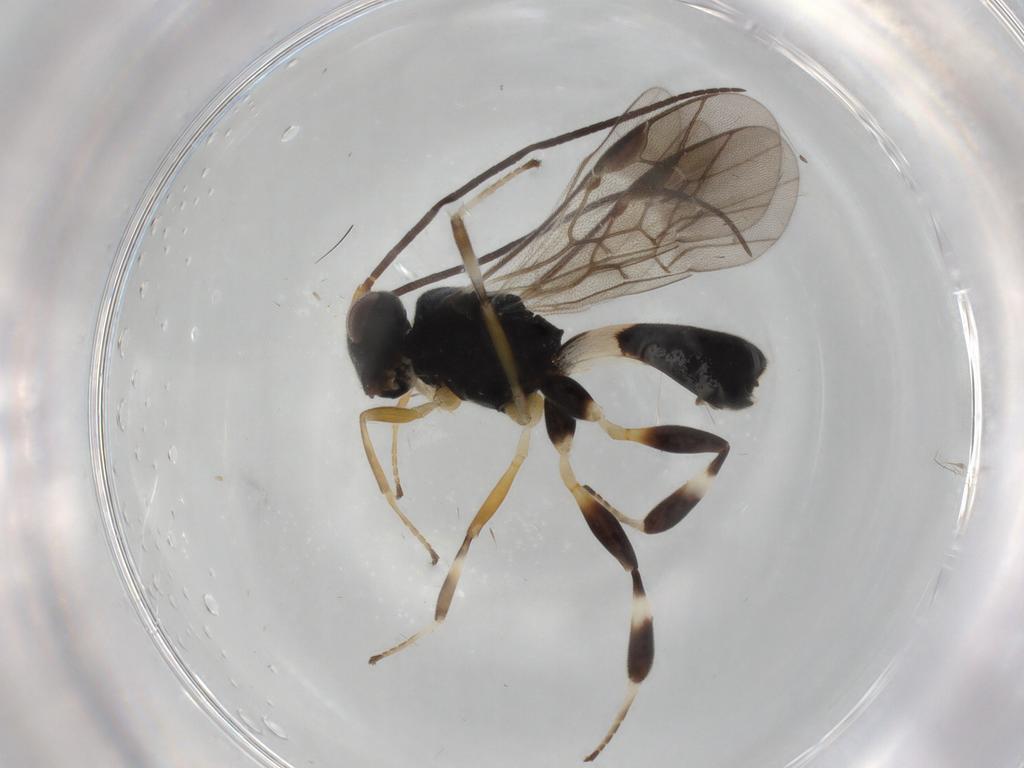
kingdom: Animalia
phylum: Arthropoda
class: Insecta
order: Hymenoptera
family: Braconidae
